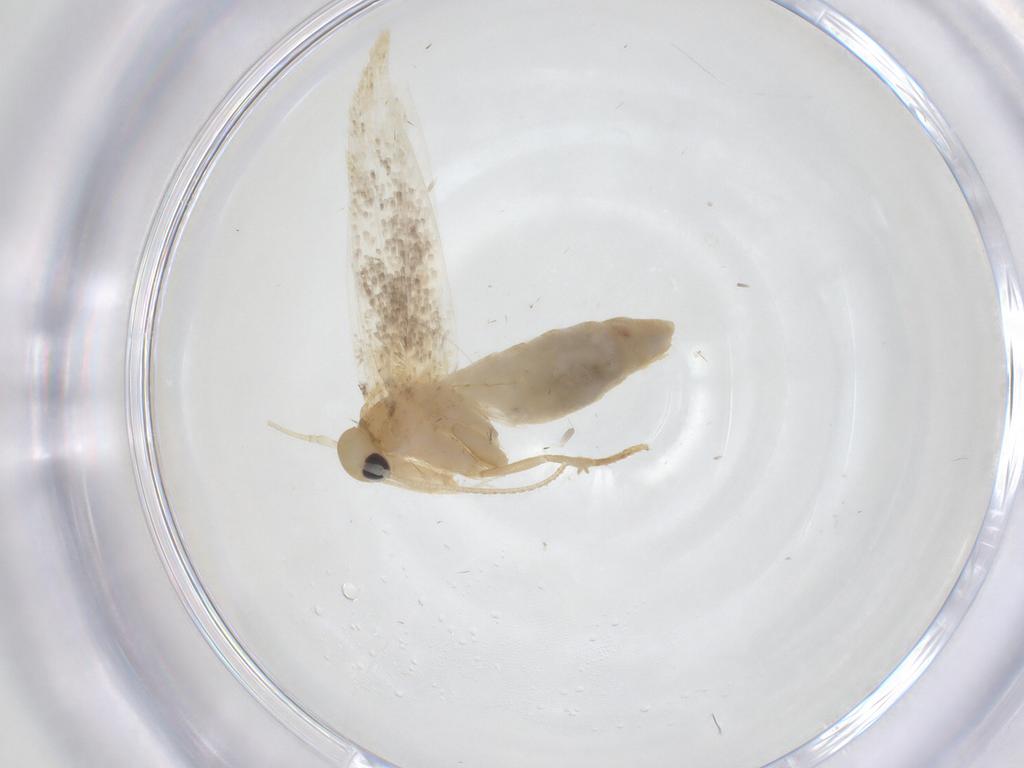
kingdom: Animalia
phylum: Arthropoda
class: Insecta
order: Lepidoptera
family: Erebidae
